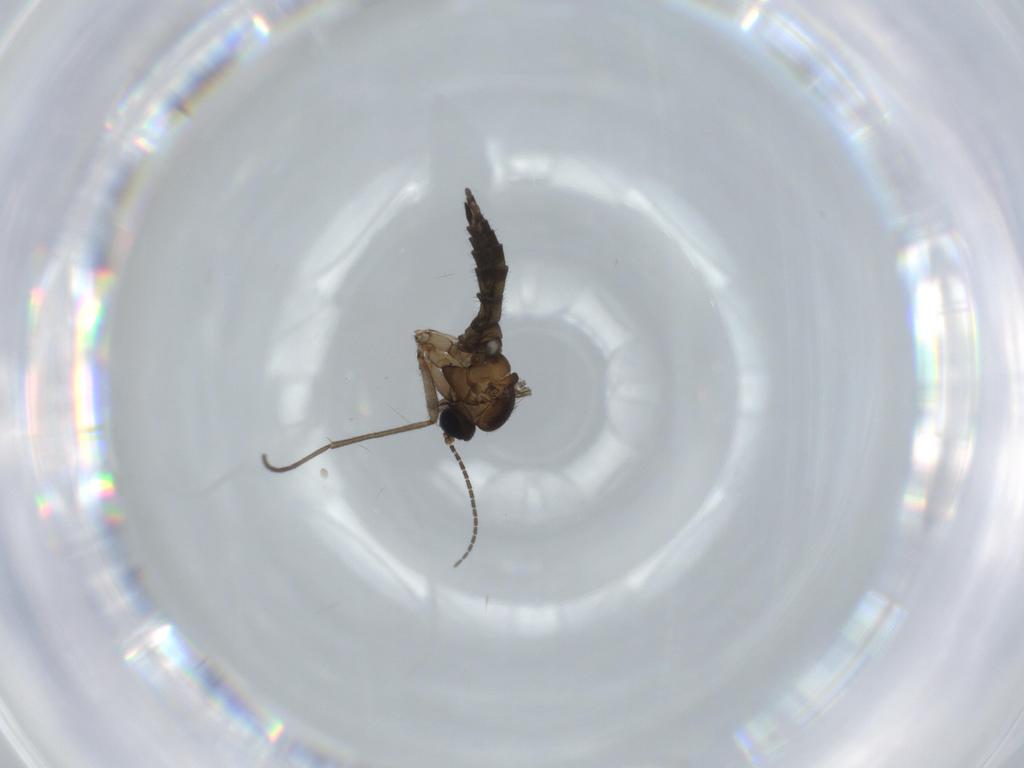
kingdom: Animalia
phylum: Arthropoda
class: Insecta
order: Diptera
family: Sciaridae
